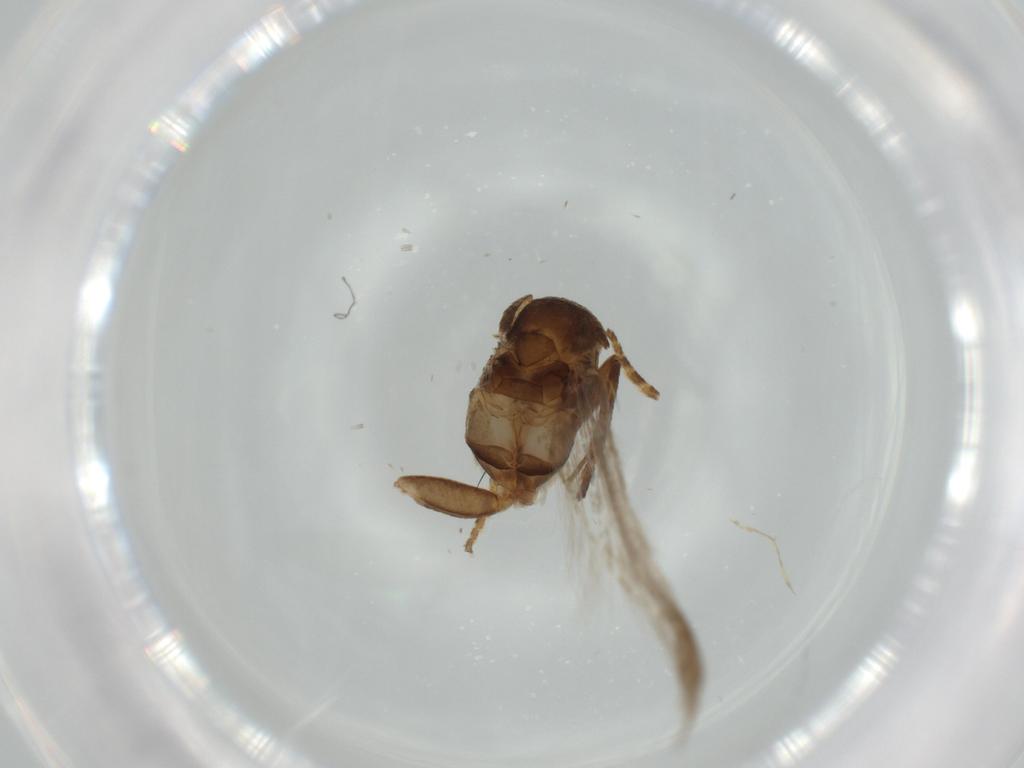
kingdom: Animalia
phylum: Arthropoda
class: Insecta
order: Lepidoptera
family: Gelechiidae
